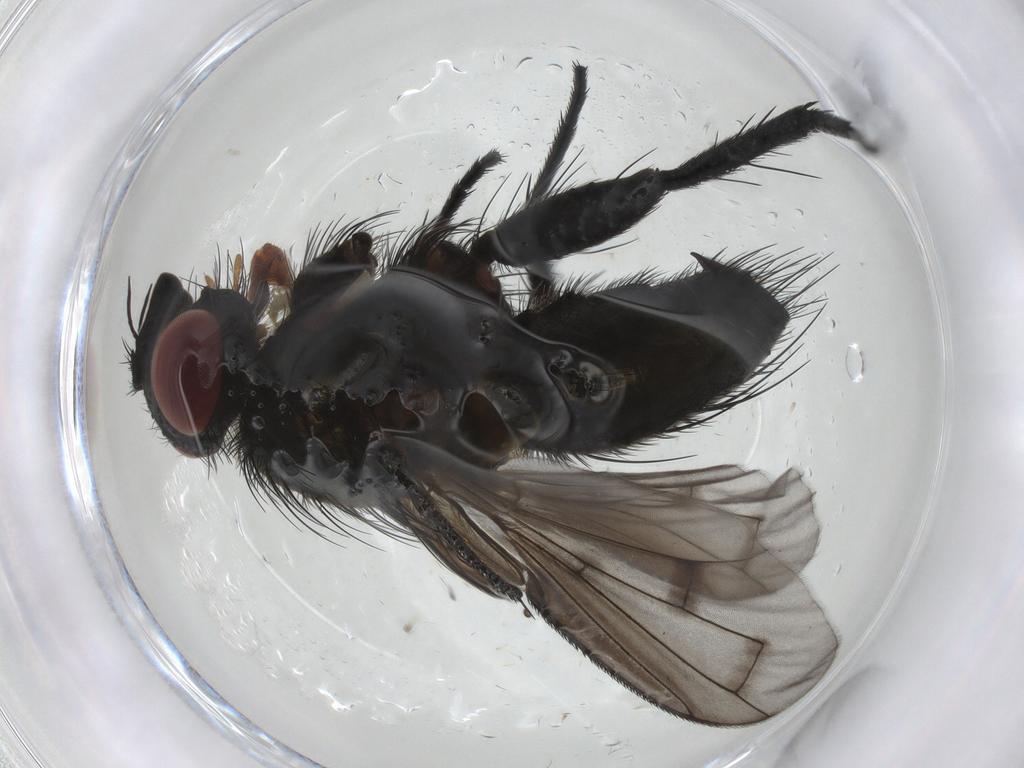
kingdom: Animalia
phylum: Arthropoda
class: Insecta
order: Diptera
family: Tachinidae
